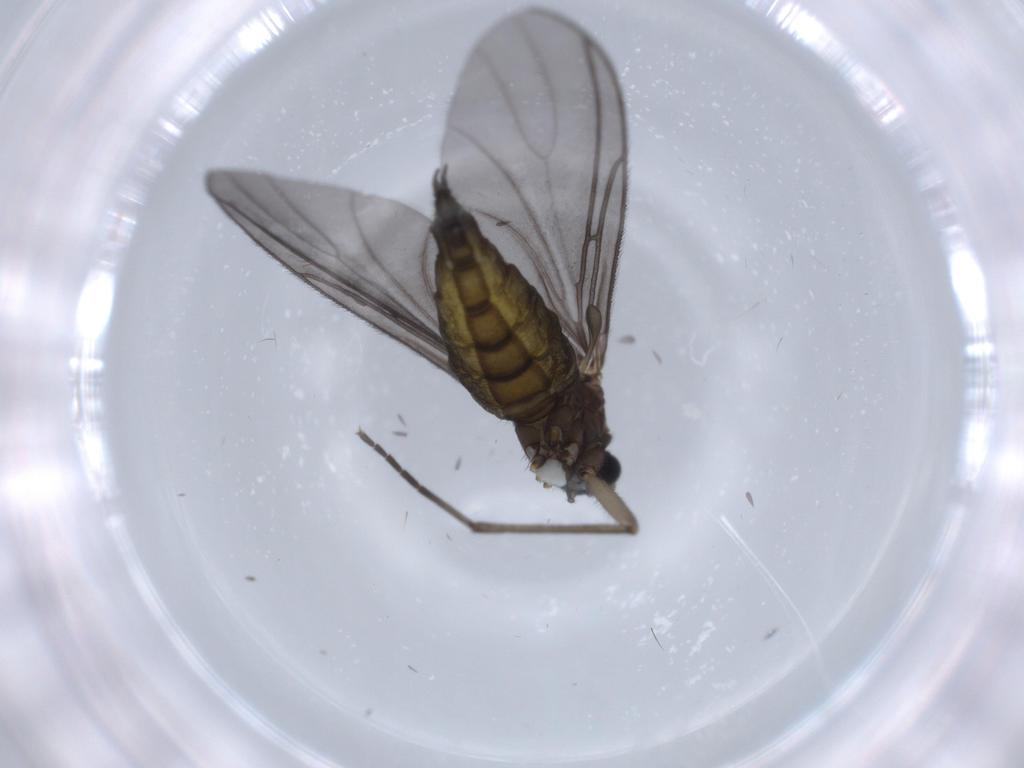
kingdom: Animalia
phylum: Arthropoda
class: Insecta
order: Diptera
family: Sciaridae
